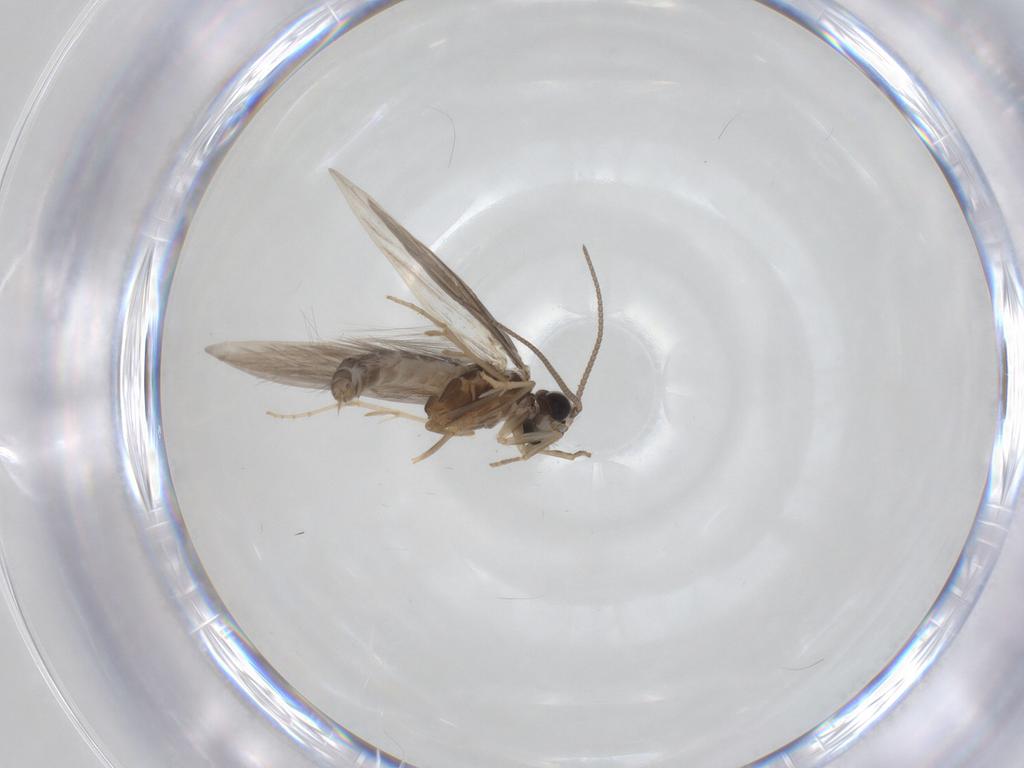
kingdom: Animalia
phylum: Arthropoda
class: Insecta
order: Trichoptera
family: Hydroptilidae
